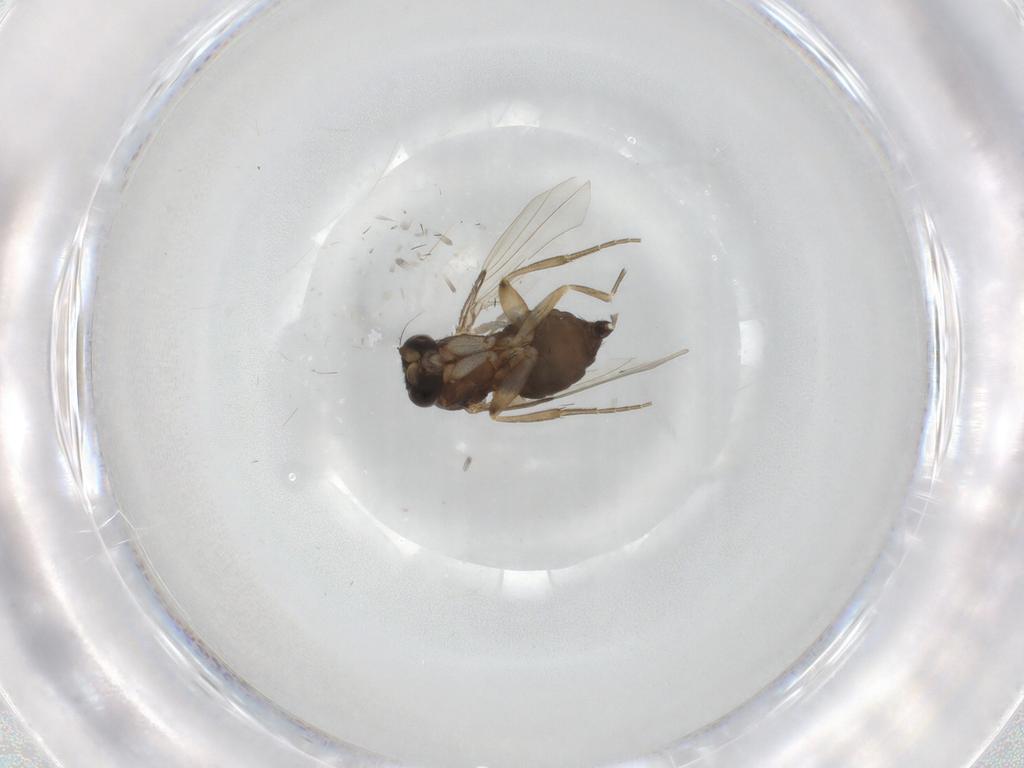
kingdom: Animalia
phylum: Arthropoda
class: Insecta
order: Diptera
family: Phoridae
